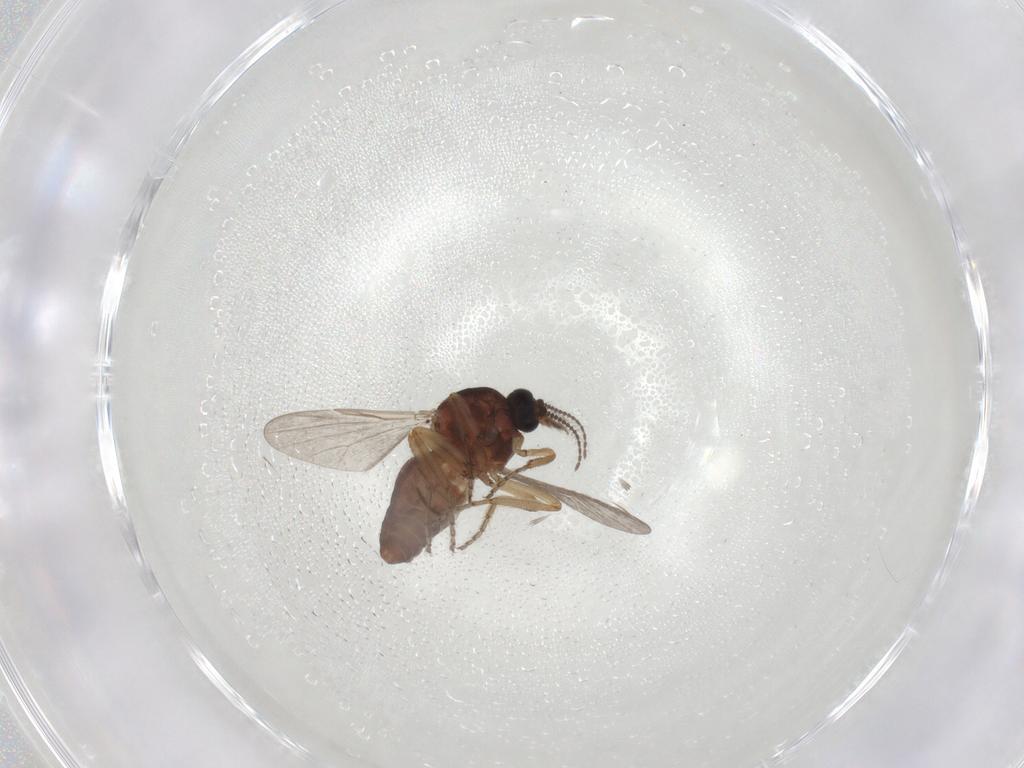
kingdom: Animalia
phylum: Arthropoda
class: Insecta
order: Diptera
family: Ceratopogonidae
